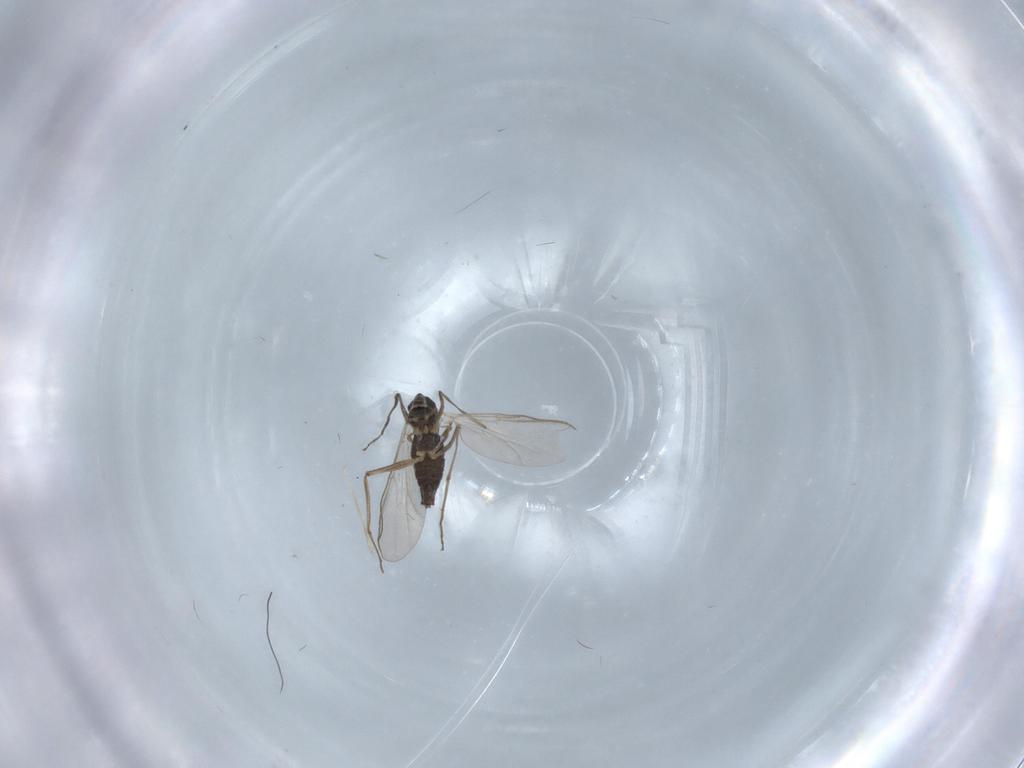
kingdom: Animalia
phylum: Arthropoda
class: Insecta
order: Diptera
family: Chironomidae
